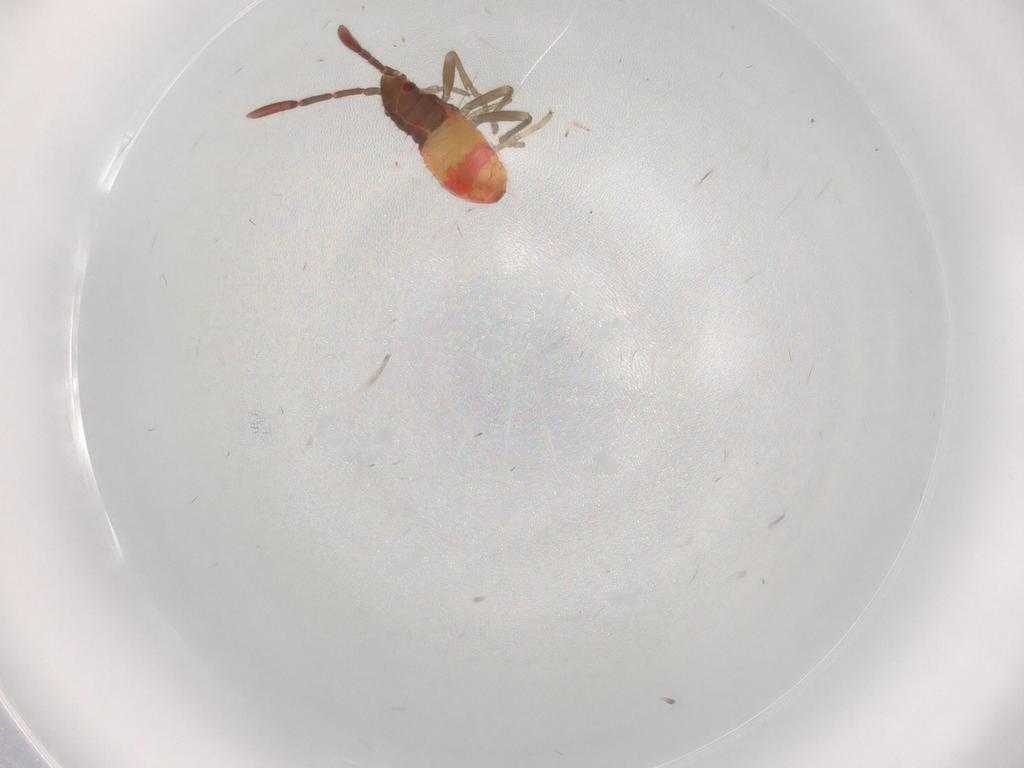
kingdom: Animalia
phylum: Arthropoda
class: Insecta
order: Hemiptera
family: Rhyparochromidae
